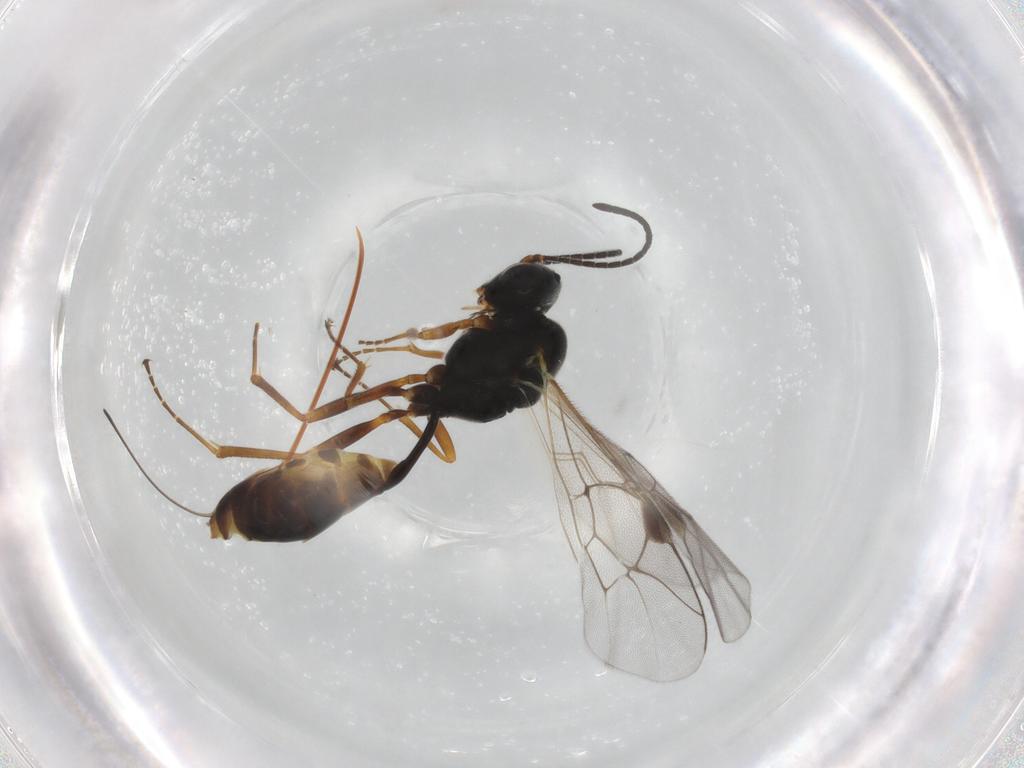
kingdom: Animalia
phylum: Arthropoda
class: Insecta
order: Hymenoptera
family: Ichneumonidae
